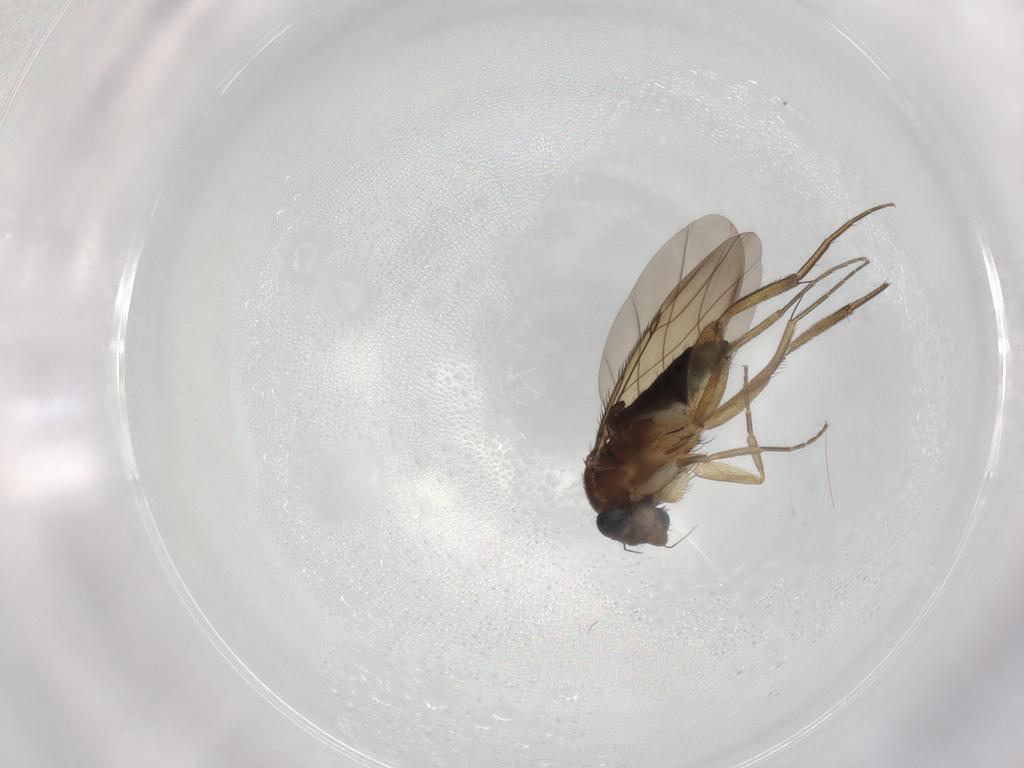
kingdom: Animalia
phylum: Arthropoda
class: Insecta
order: Diptera
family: Phoridae
